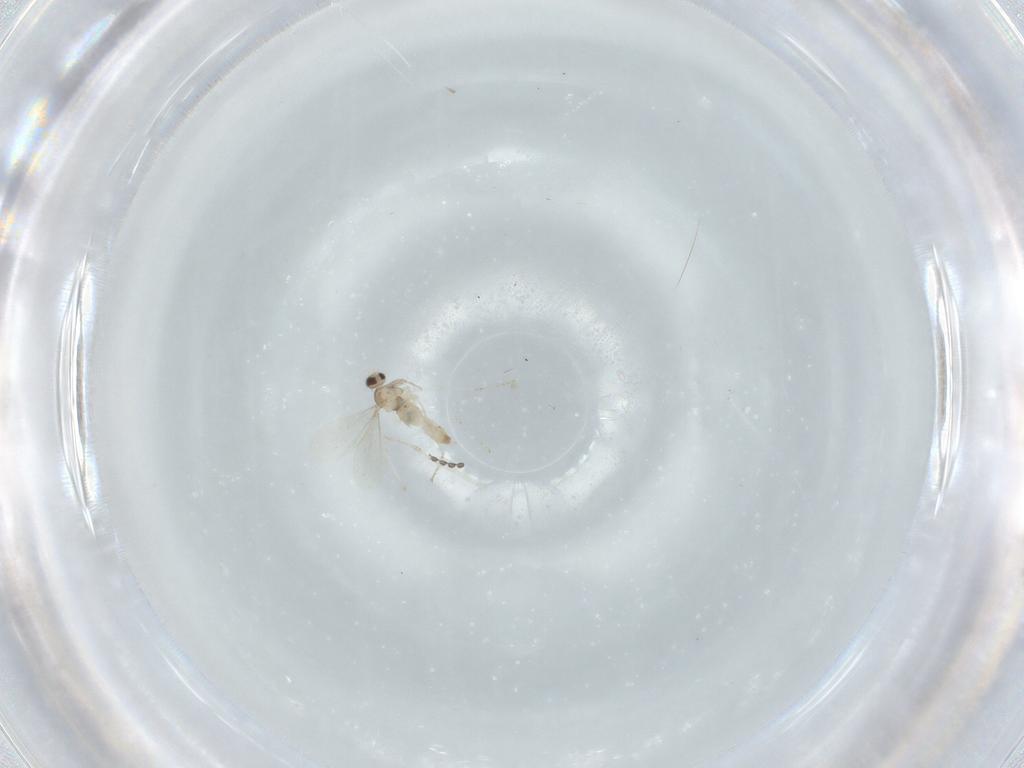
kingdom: Animalia
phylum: Arthropoda
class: Insecta
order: Diptera
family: Cecidomyiidae
